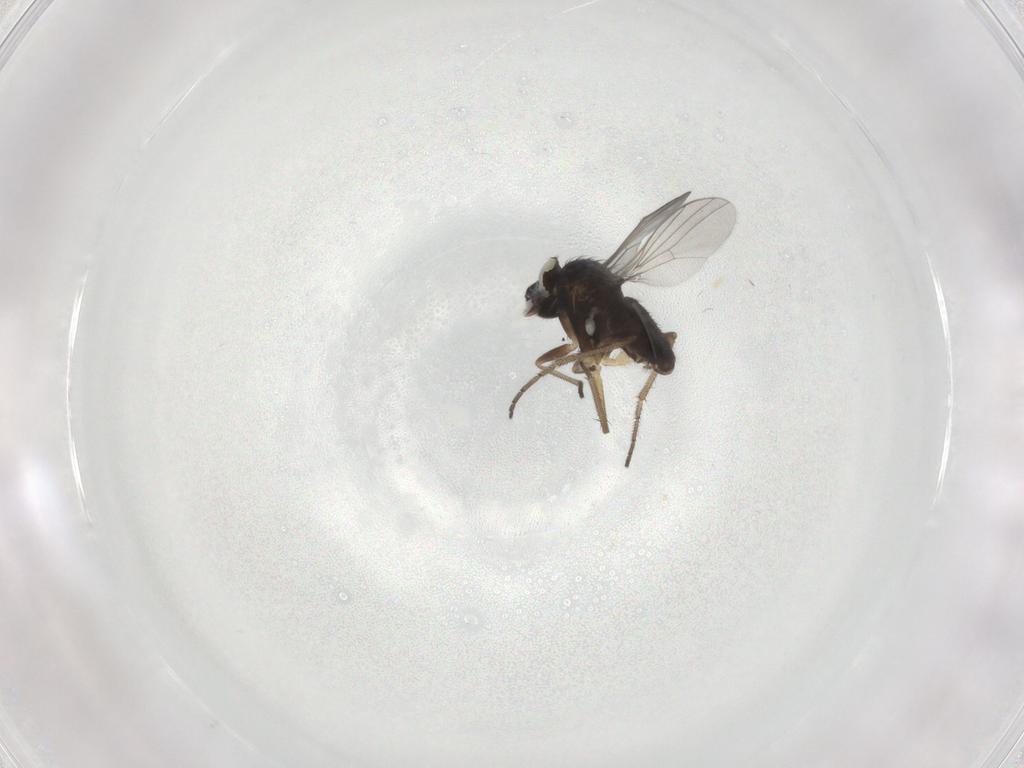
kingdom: Animalia
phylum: Arthropoda
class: Insecta
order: Diptera
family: Dolichopodidae
